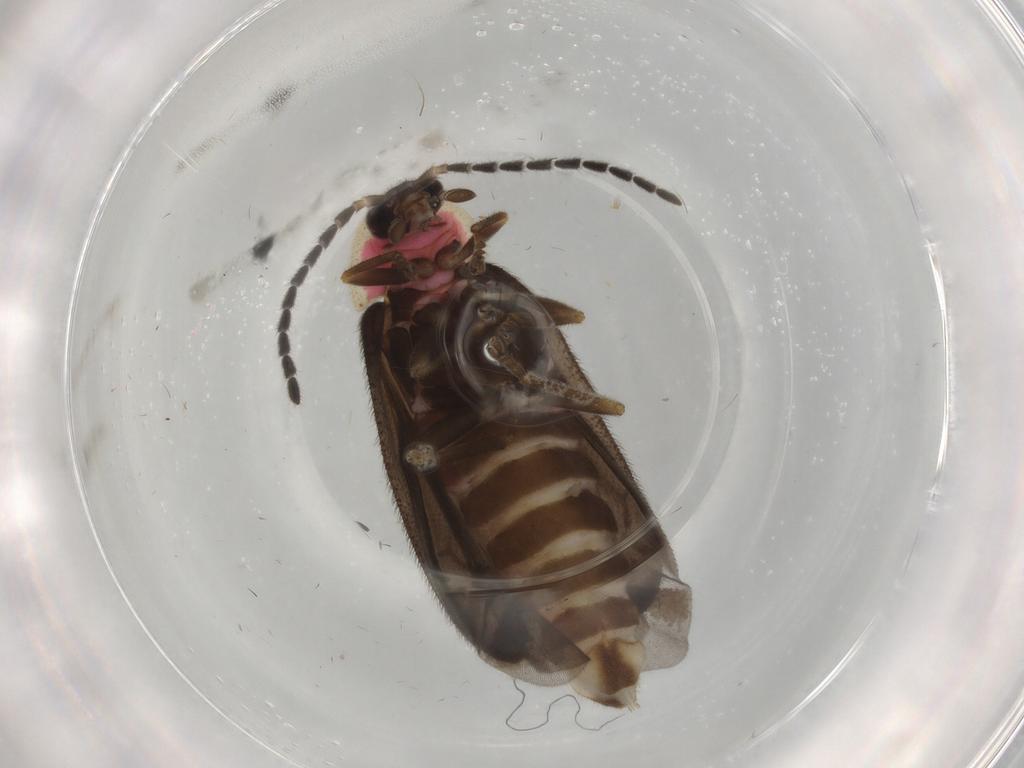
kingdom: Animalia
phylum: Arthropoda
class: Insecta
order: Coleoptera
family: Lampyridae
